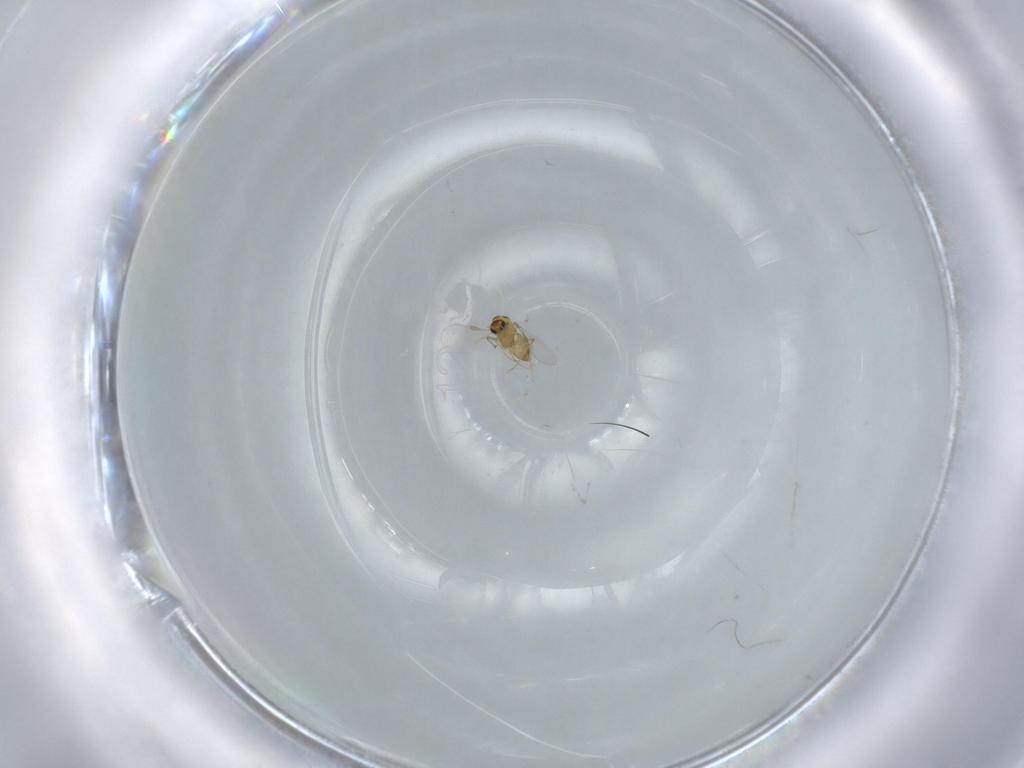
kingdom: Animalia
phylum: Arthropoda
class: Insecta
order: Diptera
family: Chironomidae
